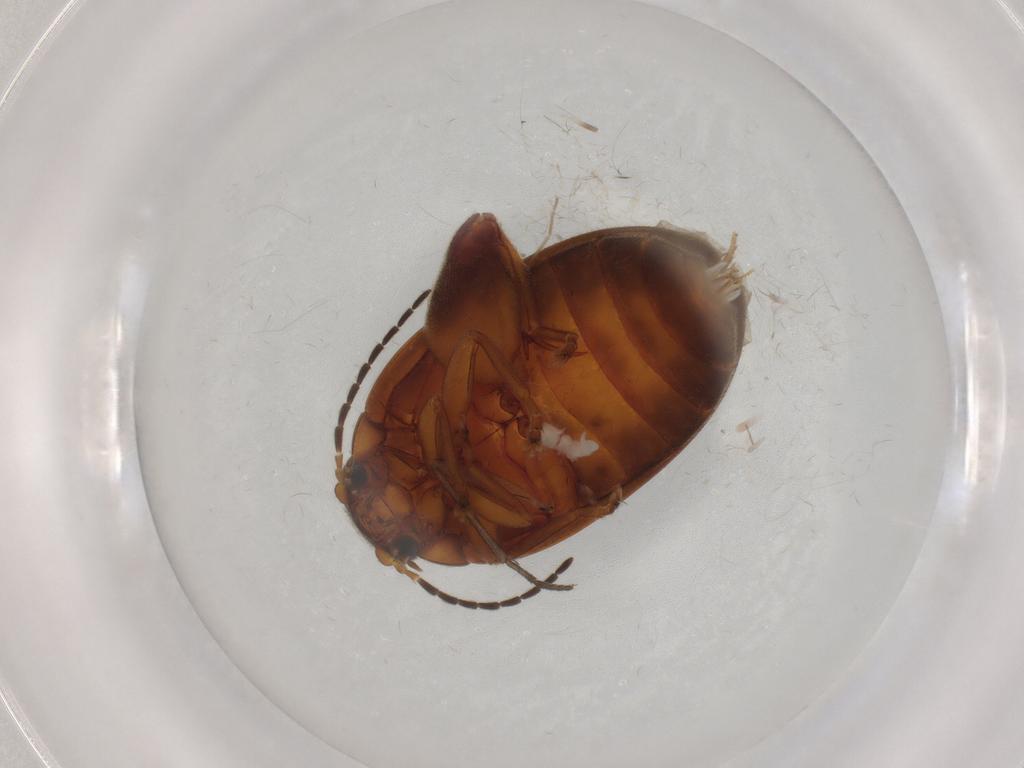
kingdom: Animalia
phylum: Arthropoda
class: Insecta
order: Coleoptera
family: Scirtidae
